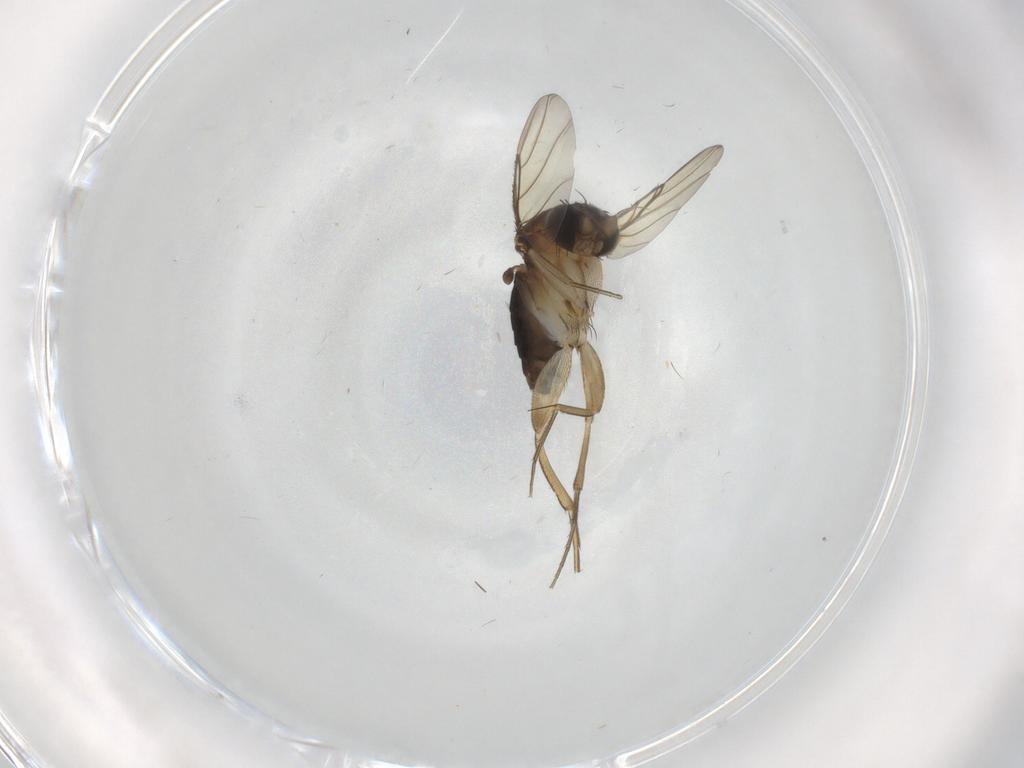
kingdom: Animalia
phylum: Arthropoda
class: Insecta
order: Diptera
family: Phoridae
